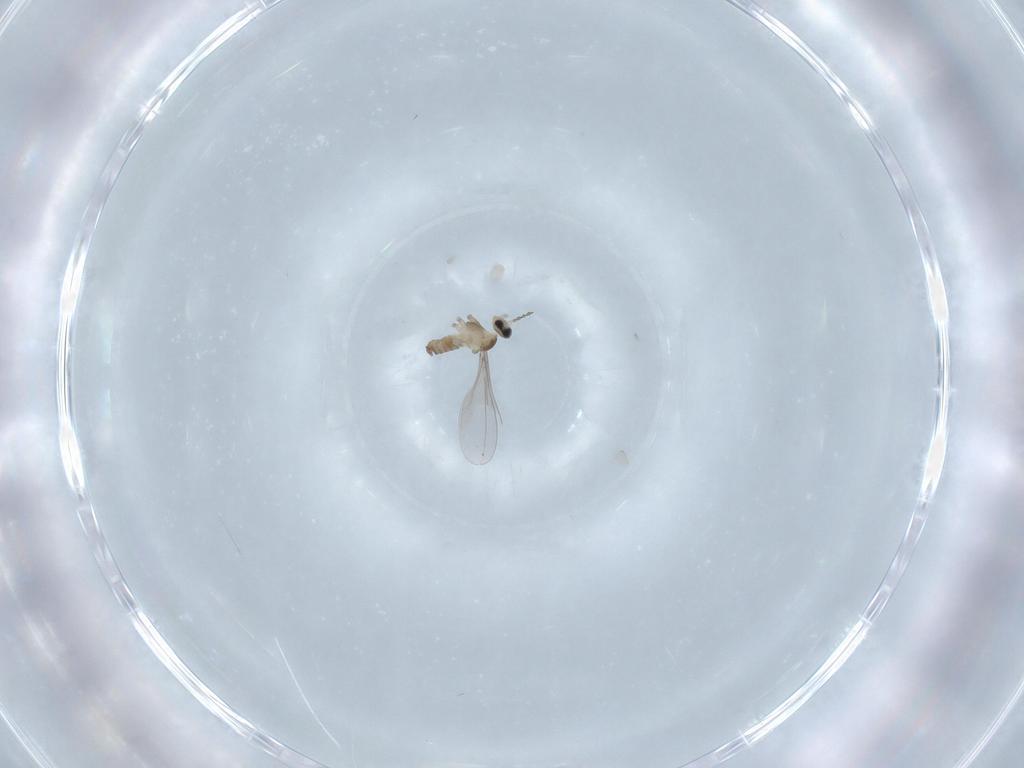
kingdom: Animalia
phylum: Arthropoda
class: Insecta
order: Diptera
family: Cecidomyiidae
